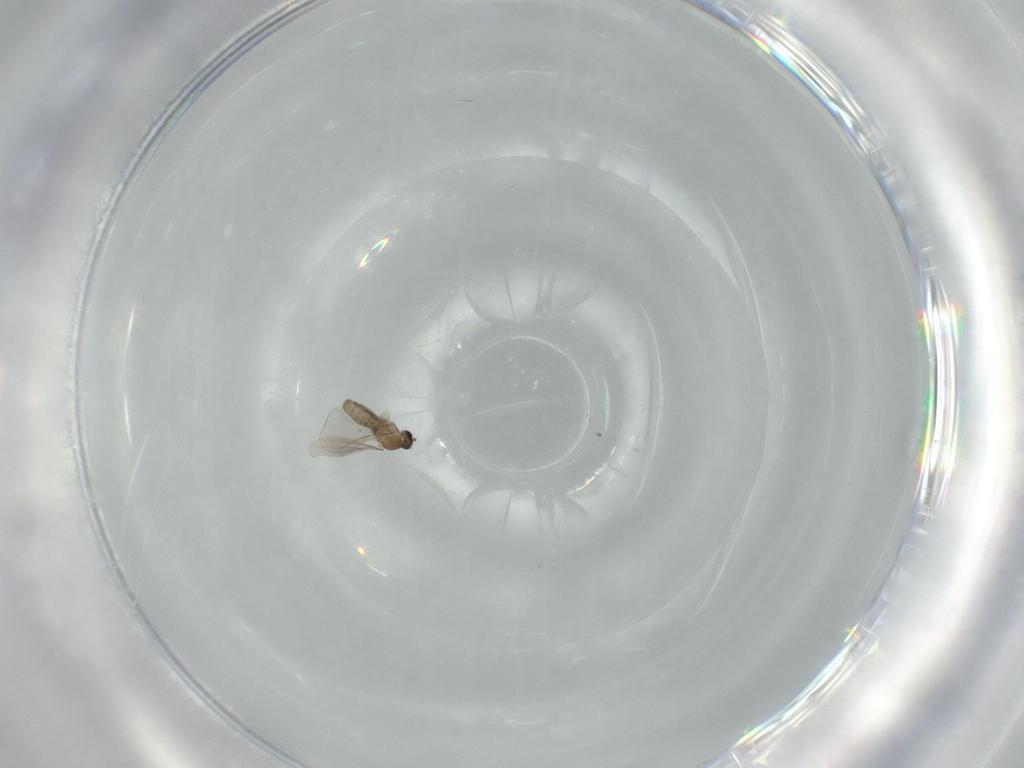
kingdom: Animalia
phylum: Arthropoda
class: Insecta
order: Diptera
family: Cecidomyiidae
